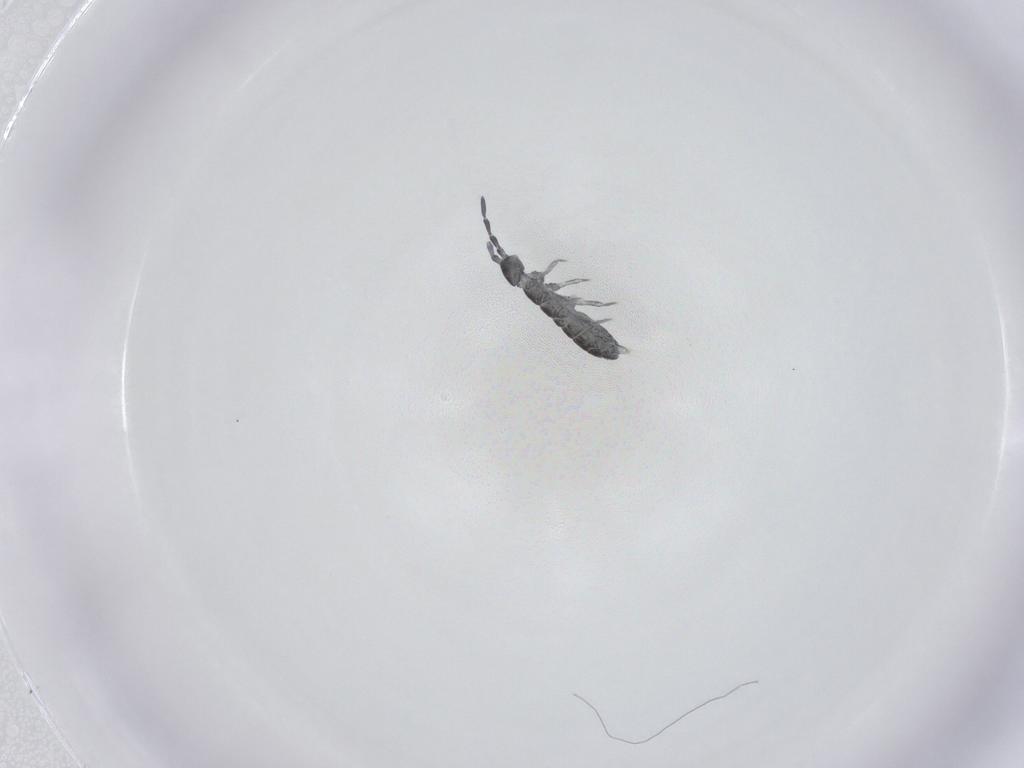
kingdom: Animalia
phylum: Arthropoda
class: Collembola
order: Entomobryomorpha
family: Isotomidae
